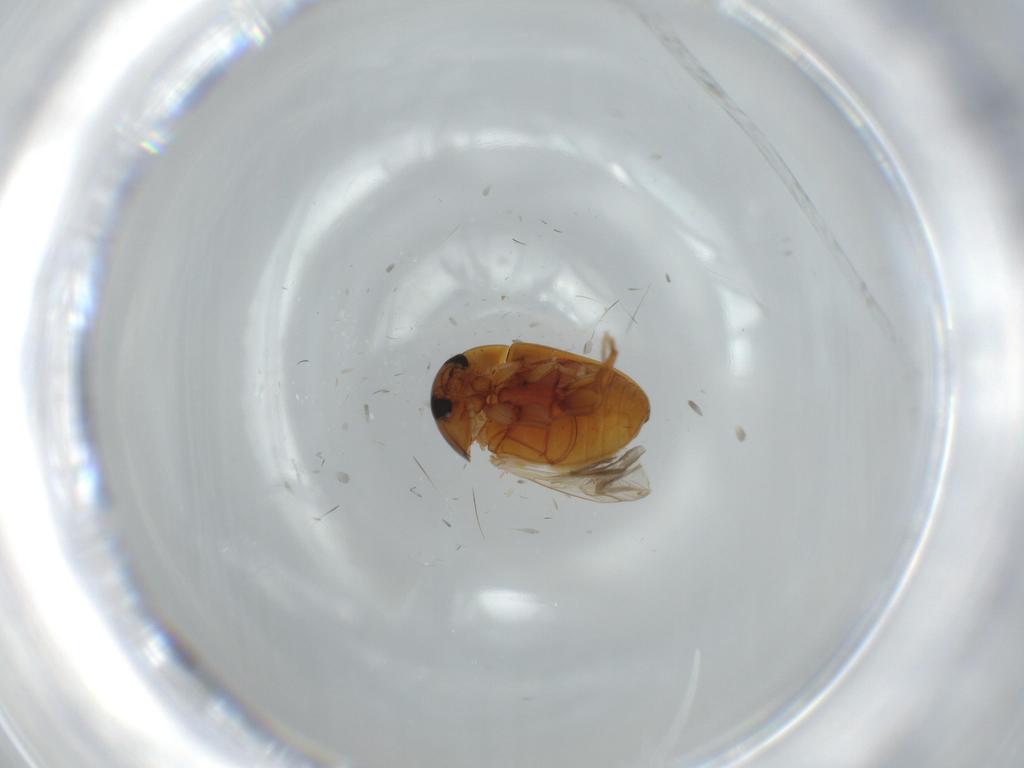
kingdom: Animalia
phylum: Arthropoda
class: Insecta
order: Coleoptera
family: Phalacridae
